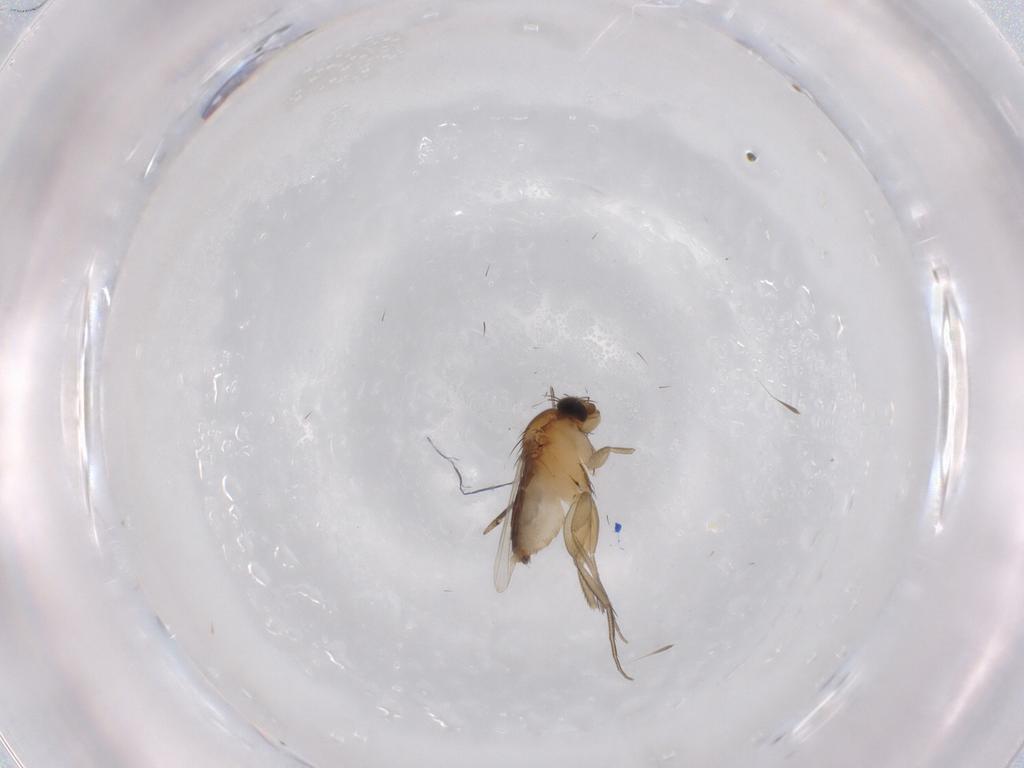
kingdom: Animalia
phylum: Arthropoda
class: Insecta
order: Diptera
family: Phoridae
